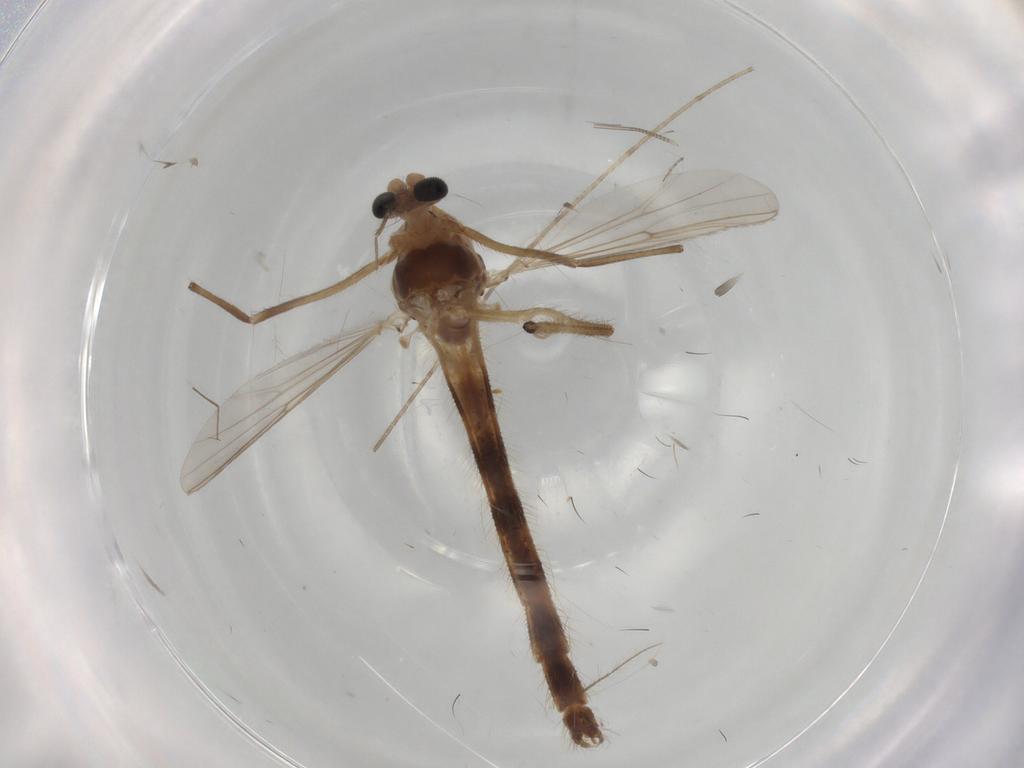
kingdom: Animalia
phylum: Arthropoda
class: Insecta
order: Diptera
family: Chironomidae
